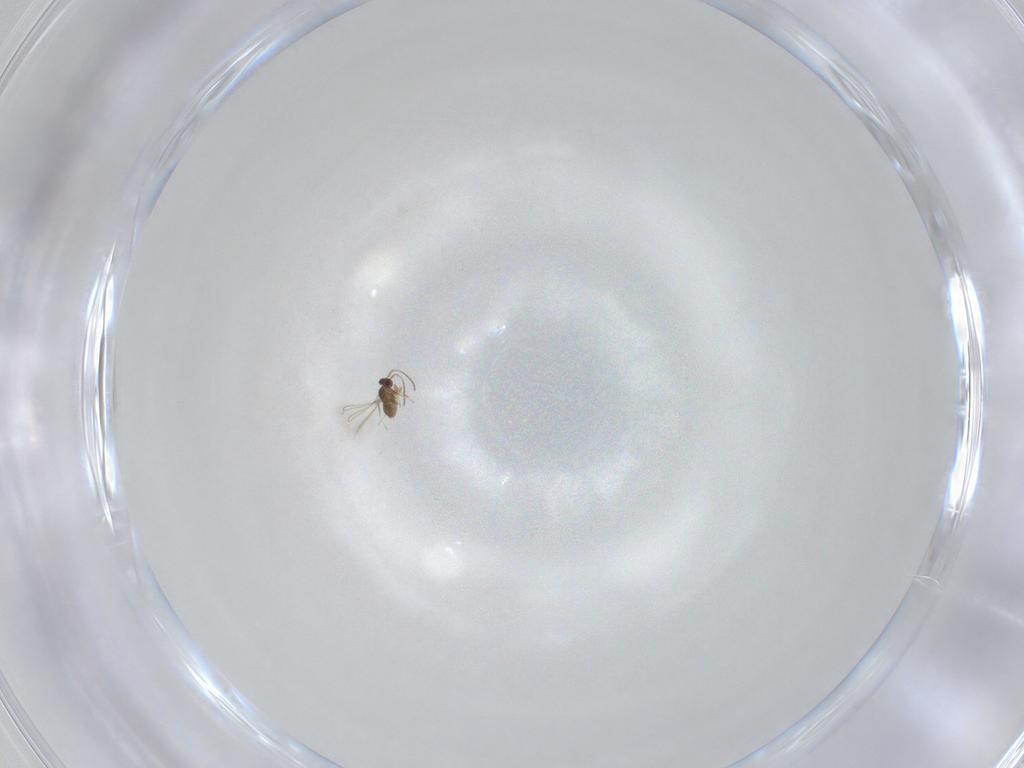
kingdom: Animalia
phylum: Arthropoda
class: Insecta
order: Hymenoptera
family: Mymaridae
